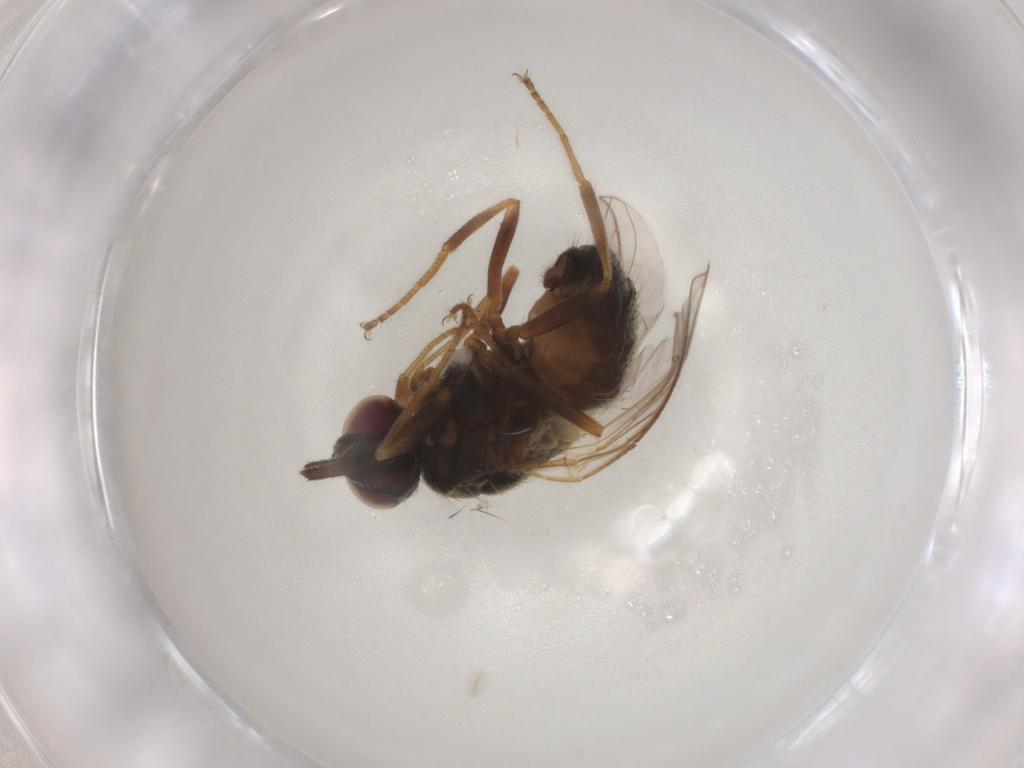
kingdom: Animalia
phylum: Arthropoda
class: Insecta
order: Diptera
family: Muscidae
